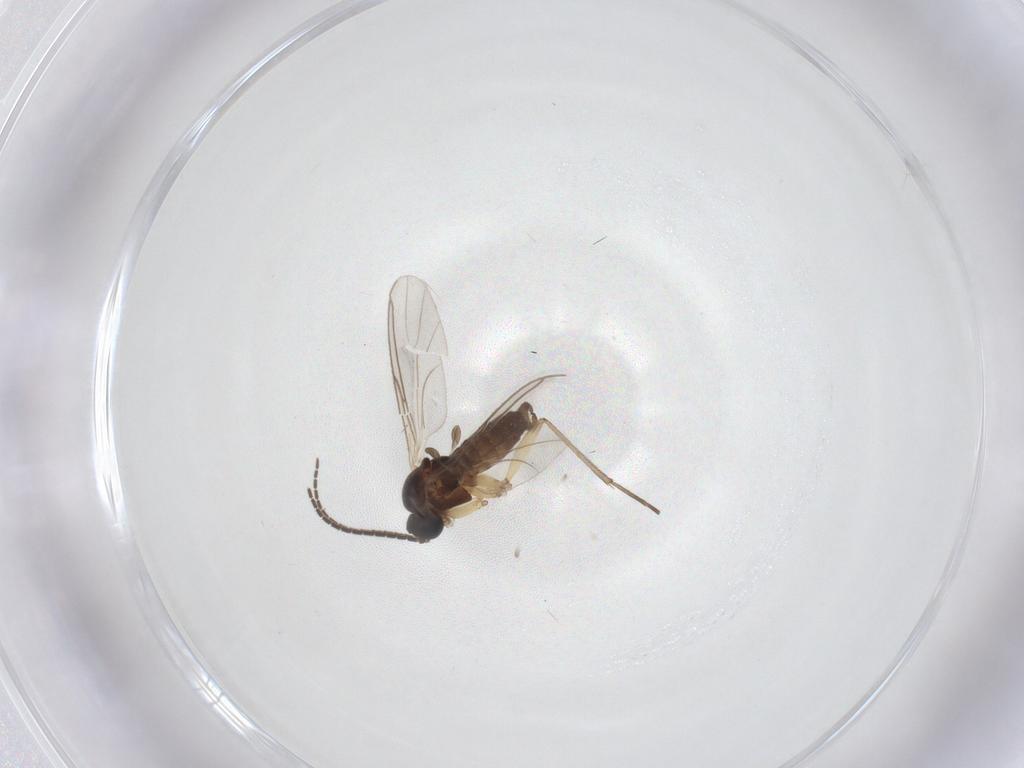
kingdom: Animalia
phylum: Arthropoda
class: Insecta
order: Diptera
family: Sciaridae
